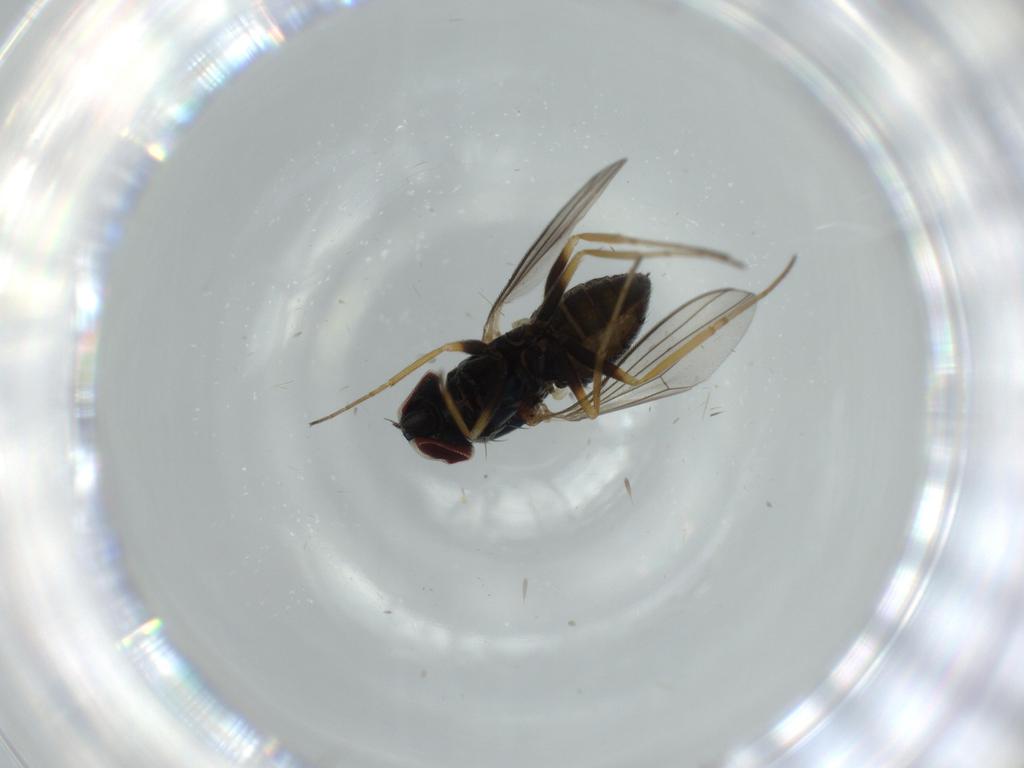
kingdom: Animalia
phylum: Arthropoda
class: Insecta
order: Diptera
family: Dolichopodidae
